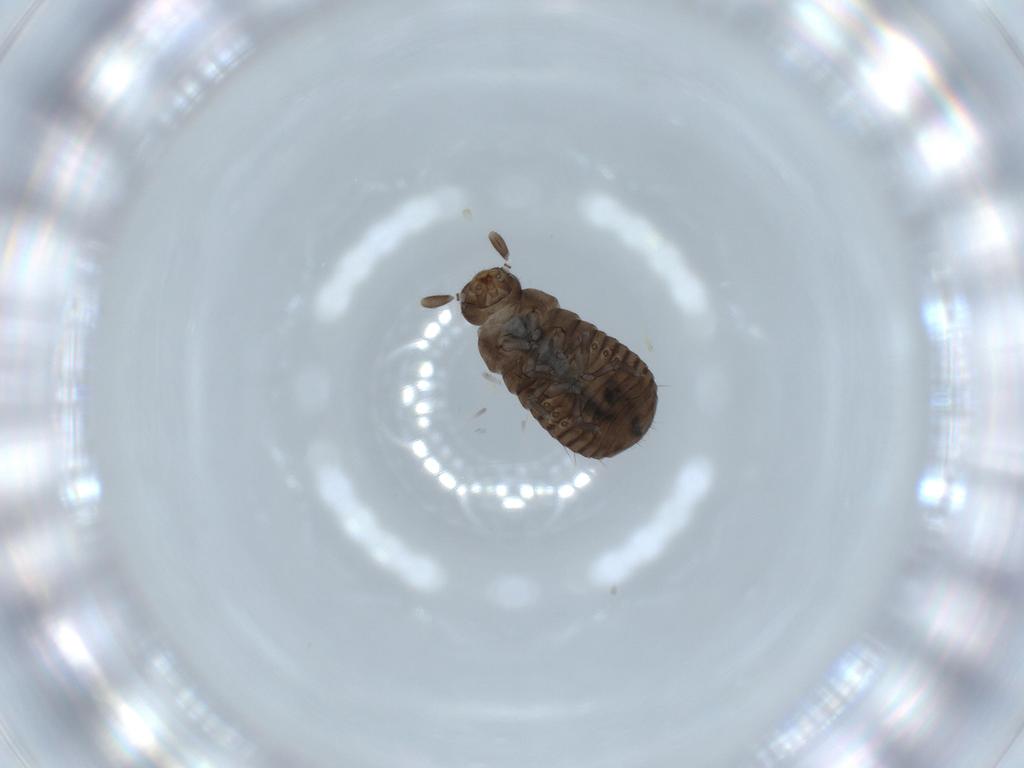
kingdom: Animalia
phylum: Arthropoda
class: Insecta
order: Coleoptera
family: Tenebrionidae
